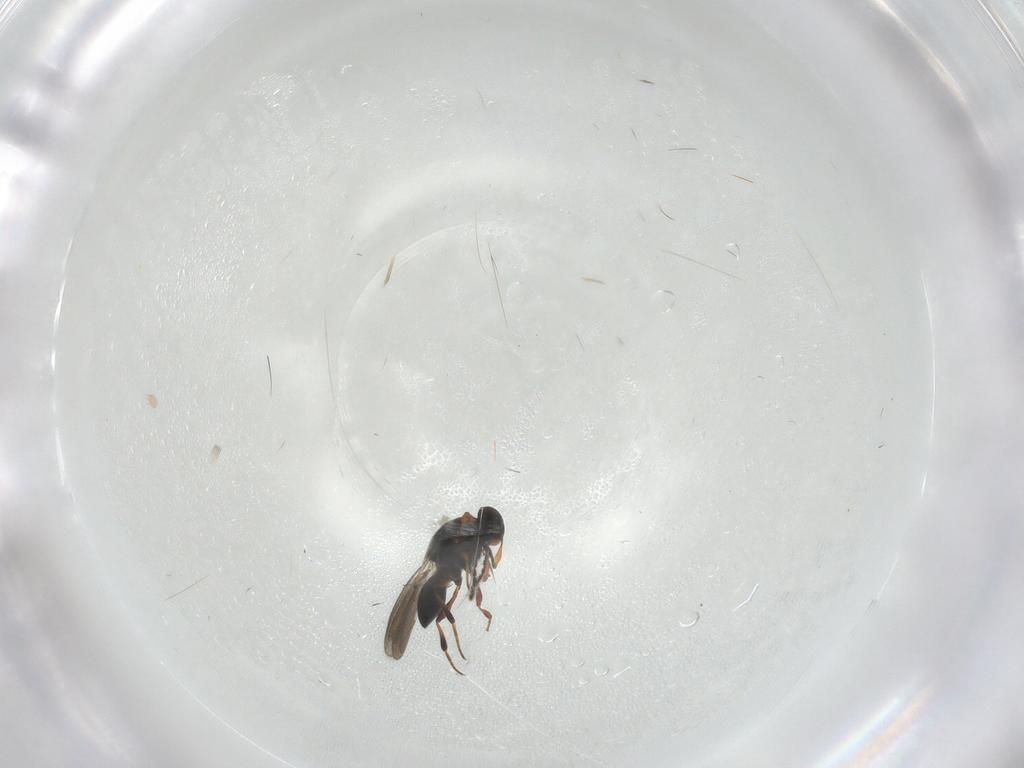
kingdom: Animalia
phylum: Arthropoda
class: Insecta
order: Hymenoptera
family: Platygastridae
